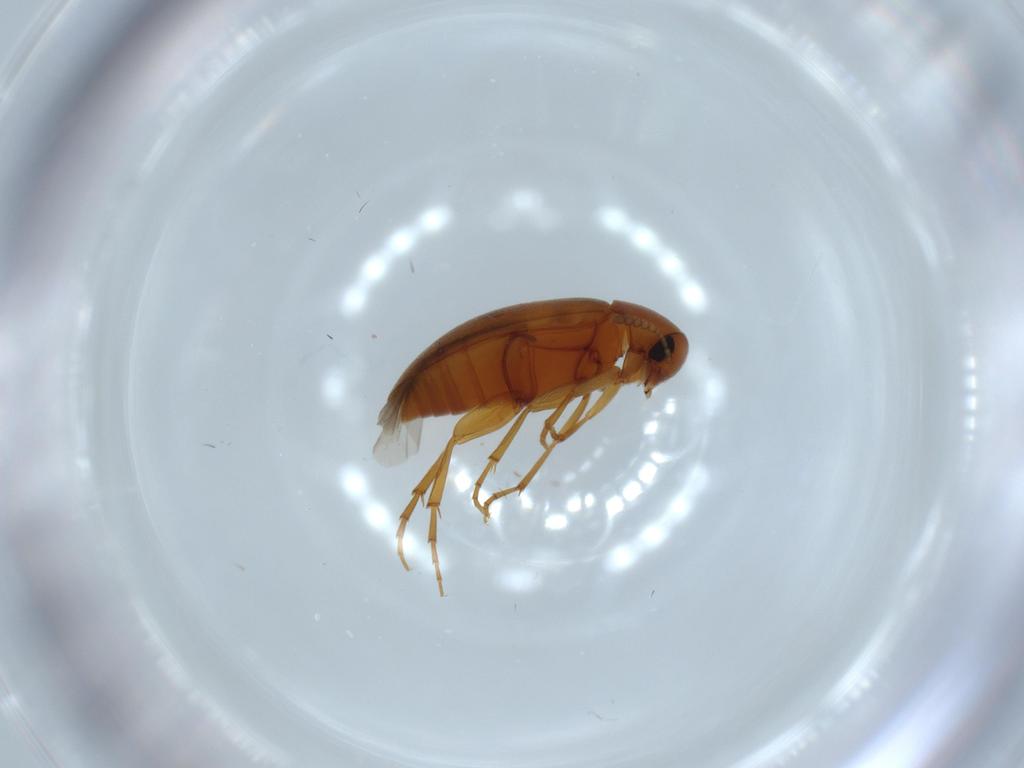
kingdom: Animalia
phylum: Arthropoda
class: Insecta
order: Coleoptera
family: Scraptiidae
